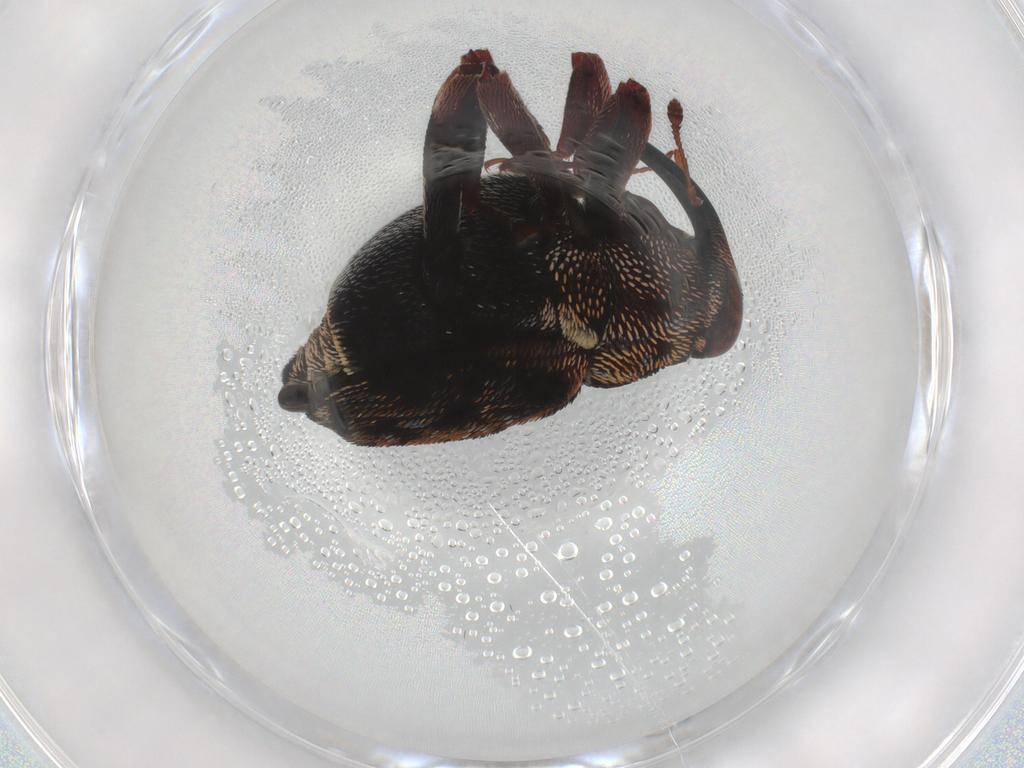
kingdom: Animalia
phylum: Arthropoda
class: Insecta
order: Coleoptera
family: Curculionidae
